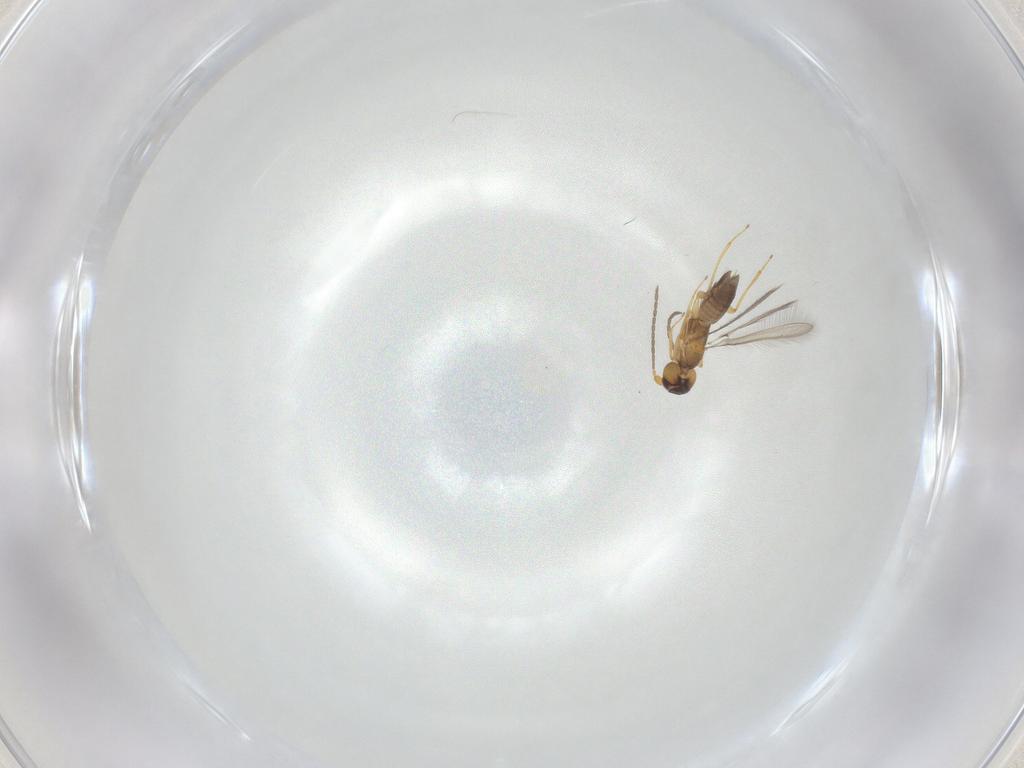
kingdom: Animalia
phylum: Arthropoda
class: Insecta
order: Hymenoptera
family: Mymaridae
